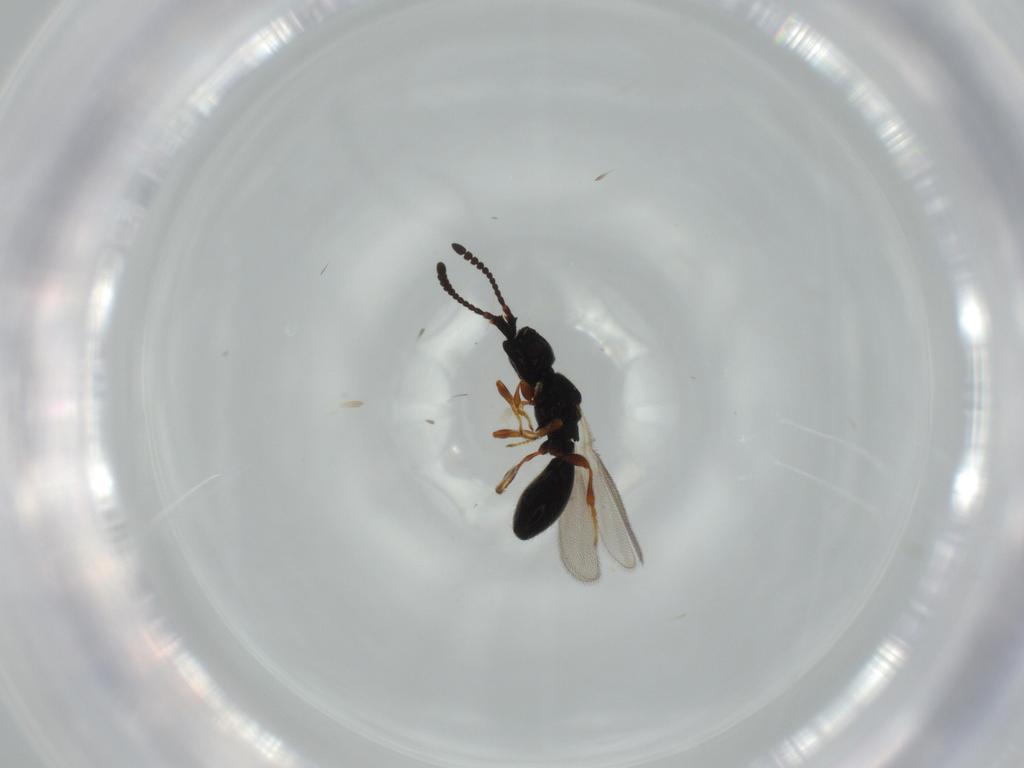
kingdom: Animalia
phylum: Arthropoda
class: Insecta
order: Hymenoptera
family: Diapriidae
